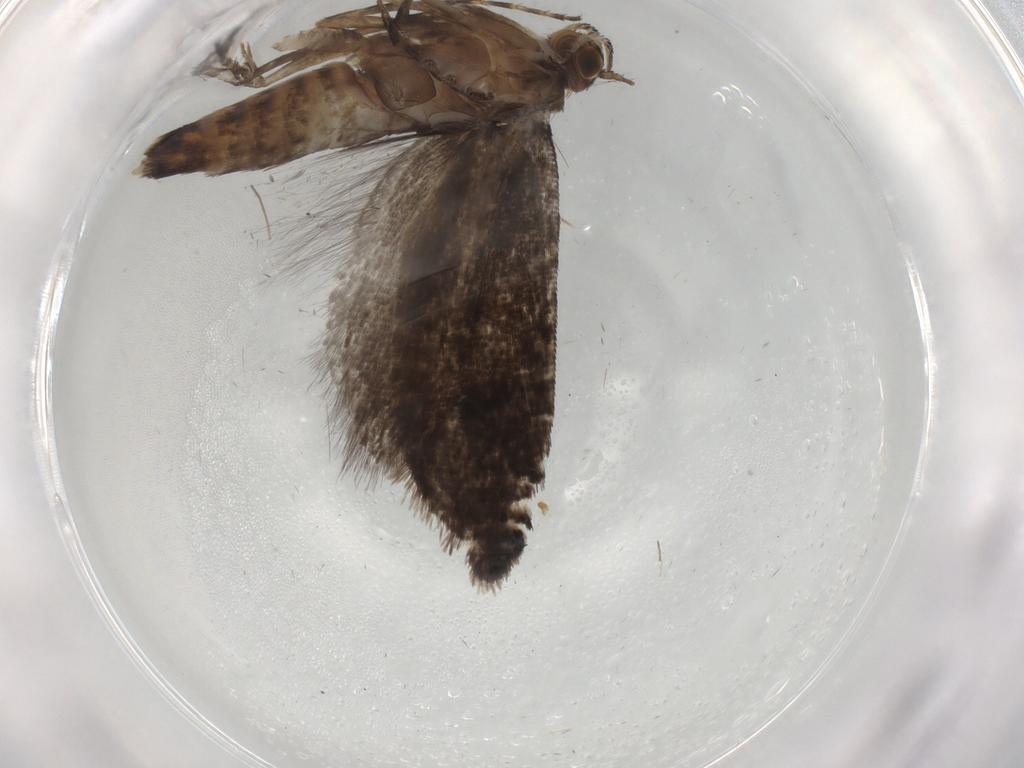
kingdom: Animalia
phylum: Arthropoda
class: Insecta
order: Lepidoptera
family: Glyphipterigidae
